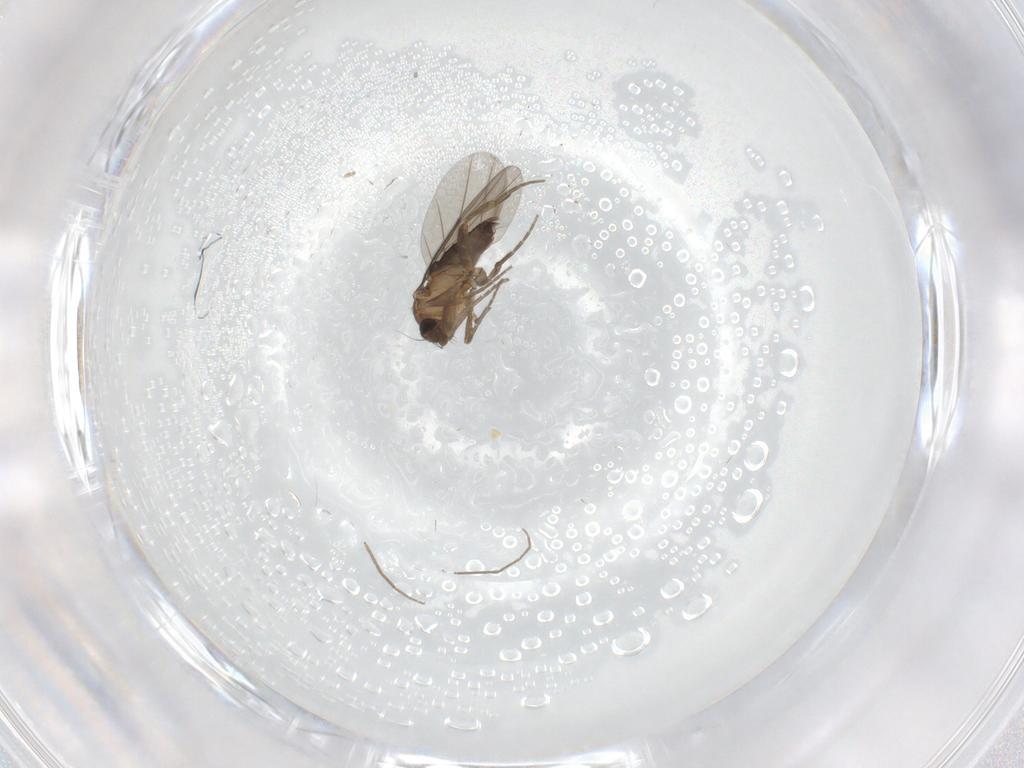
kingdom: Animalia
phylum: Arthropoda
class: Insecta
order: Diptera
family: Phoridae
